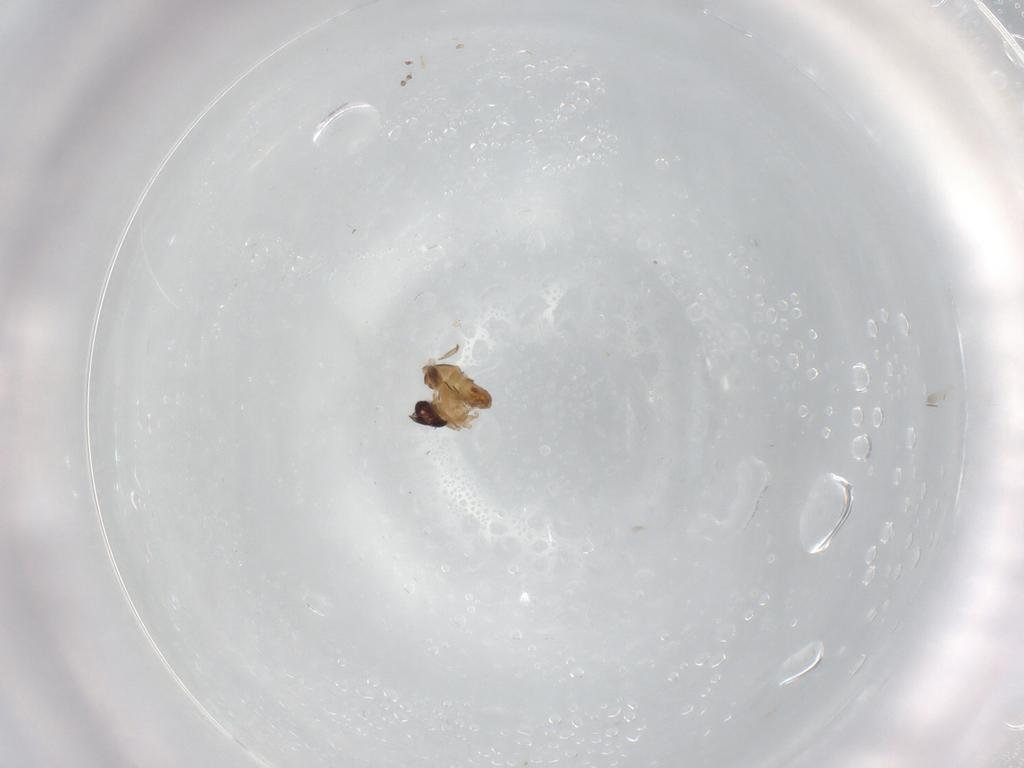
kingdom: Animalia
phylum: Arthropoda
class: Insecta
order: Diptera
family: Psychodidae
